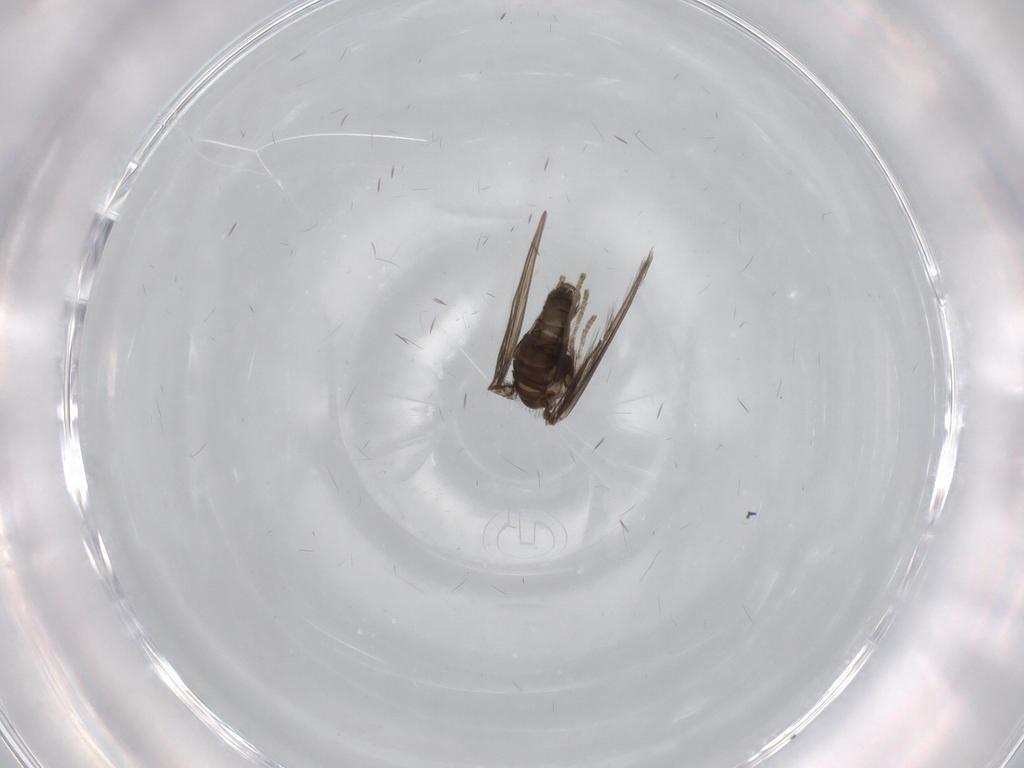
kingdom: Animalia
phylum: Arthropoda
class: Insecta
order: Diptera
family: Psychodidae
